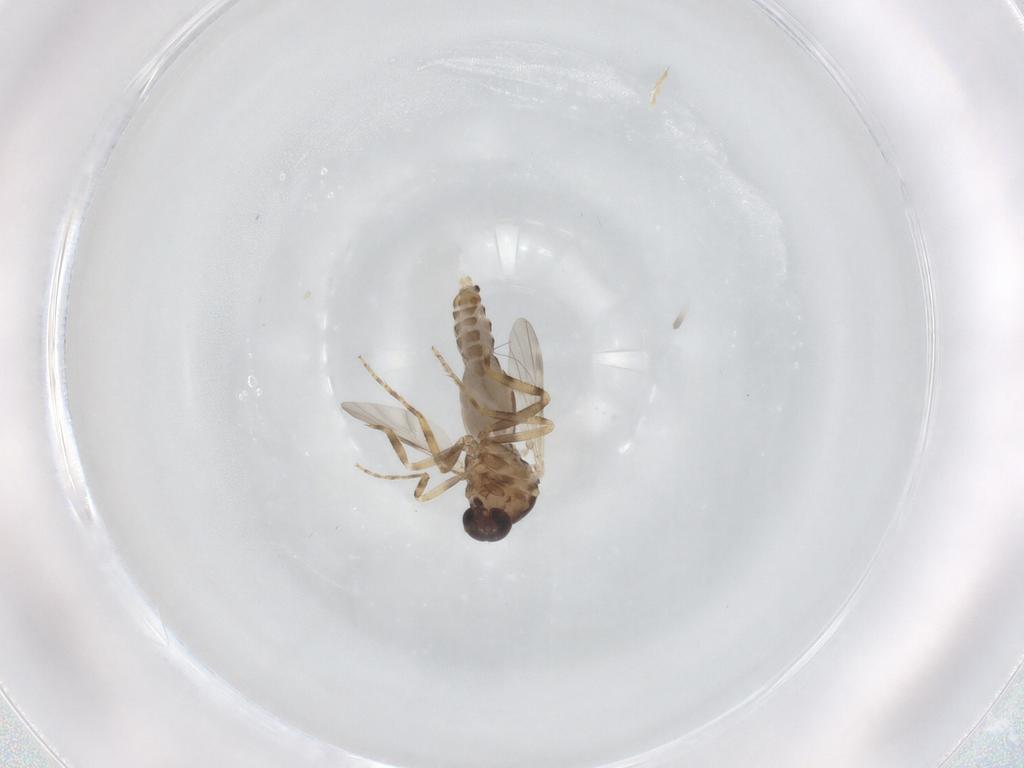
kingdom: Animalia
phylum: Arthropoda
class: Insecta
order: Diptera
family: Ceratopogonidae
